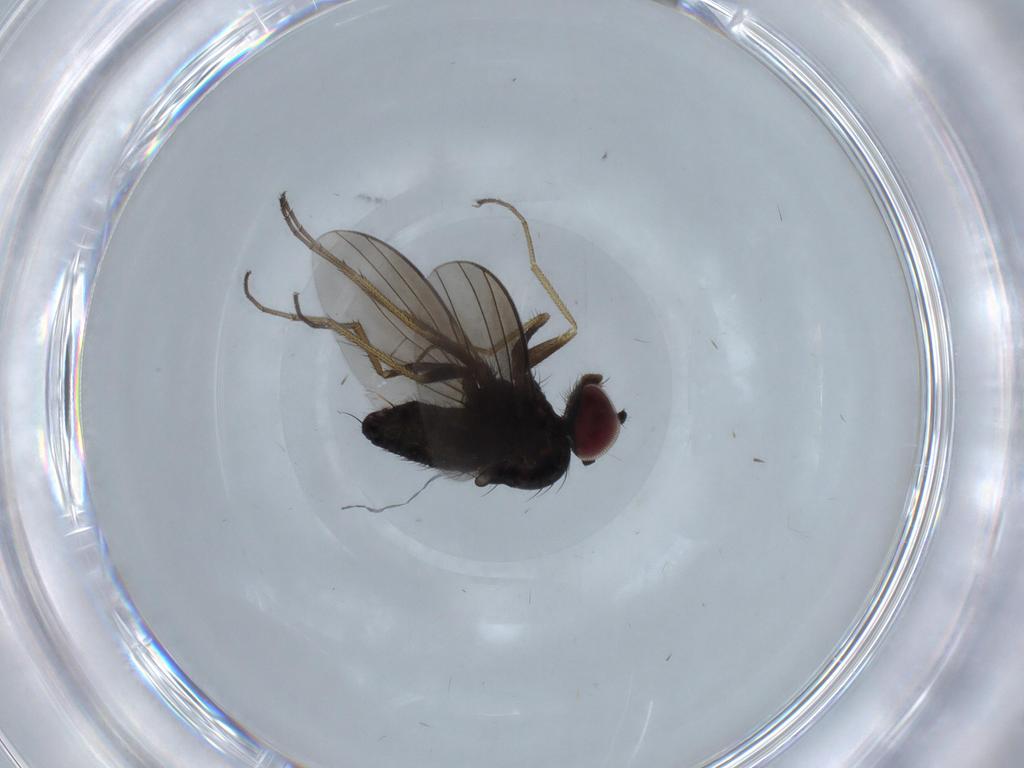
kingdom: Animalia
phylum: Arthropoda
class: Insecta
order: Diptera
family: Dolichopodidae
